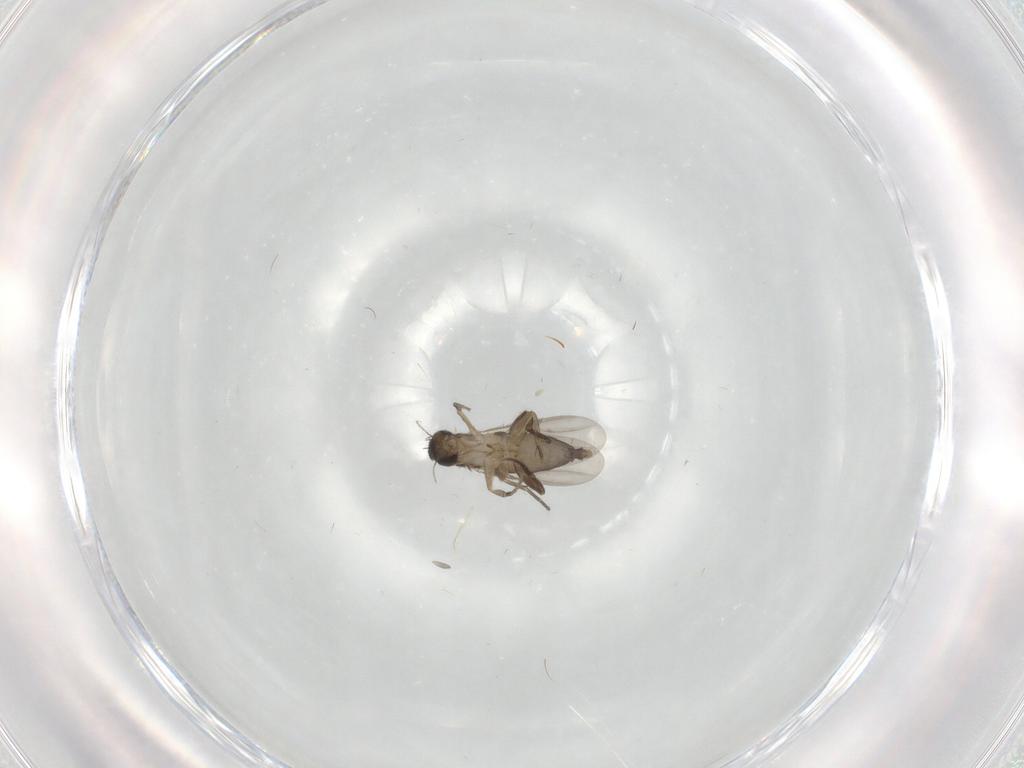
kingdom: Animalia
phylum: Arthropoda
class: Insecta
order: Diptera
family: Phoridae
